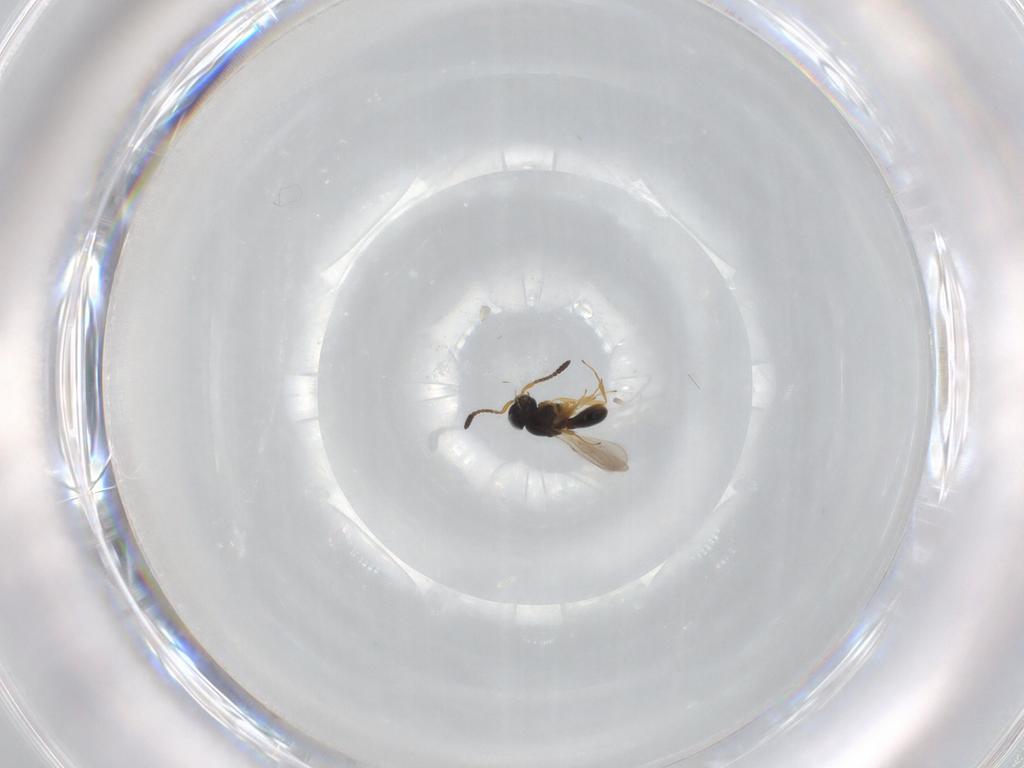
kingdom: Animalia
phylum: Arthropoda
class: Insecta
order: Hymenoptera
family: Scelionidae
